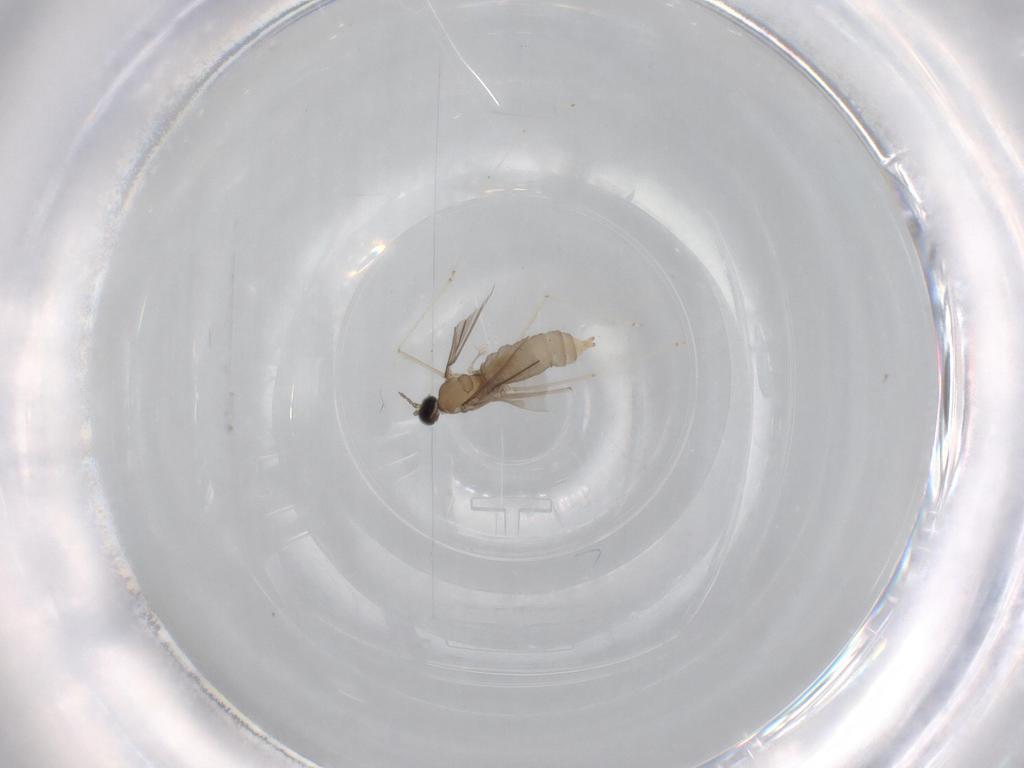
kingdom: Animalia
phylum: Arthropoda
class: Insecta
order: Diptera
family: Cecidomyiidae
